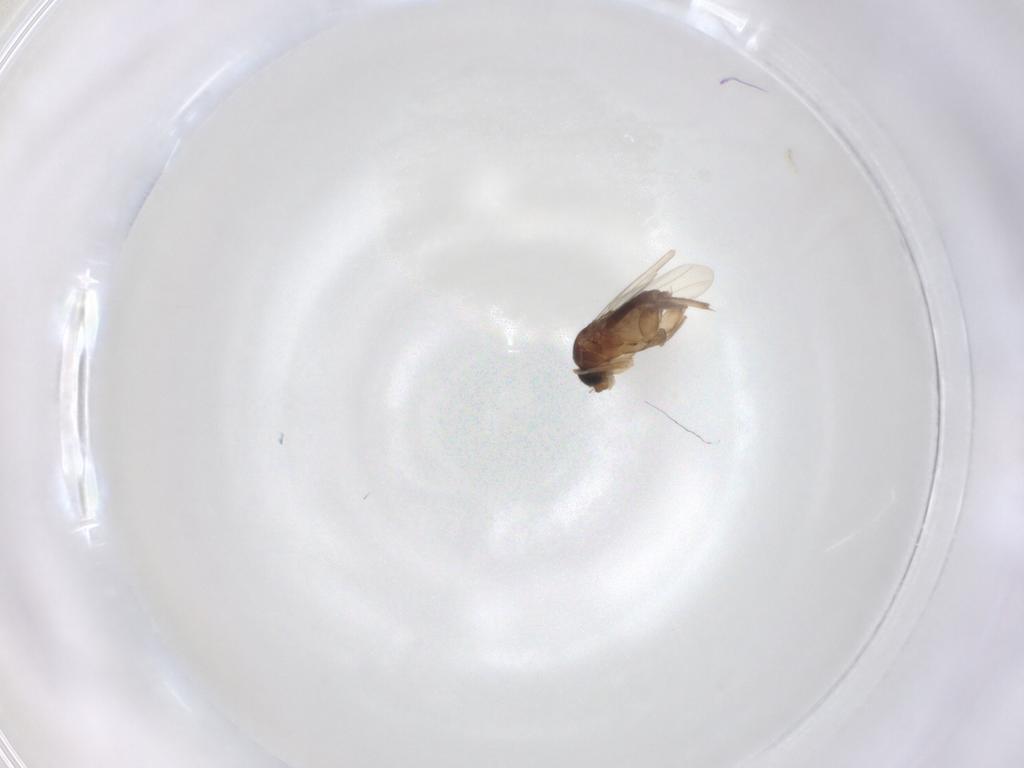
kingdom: Animalia
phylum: Arthropoda
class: Insecta
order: Diptera
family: Phoridae
